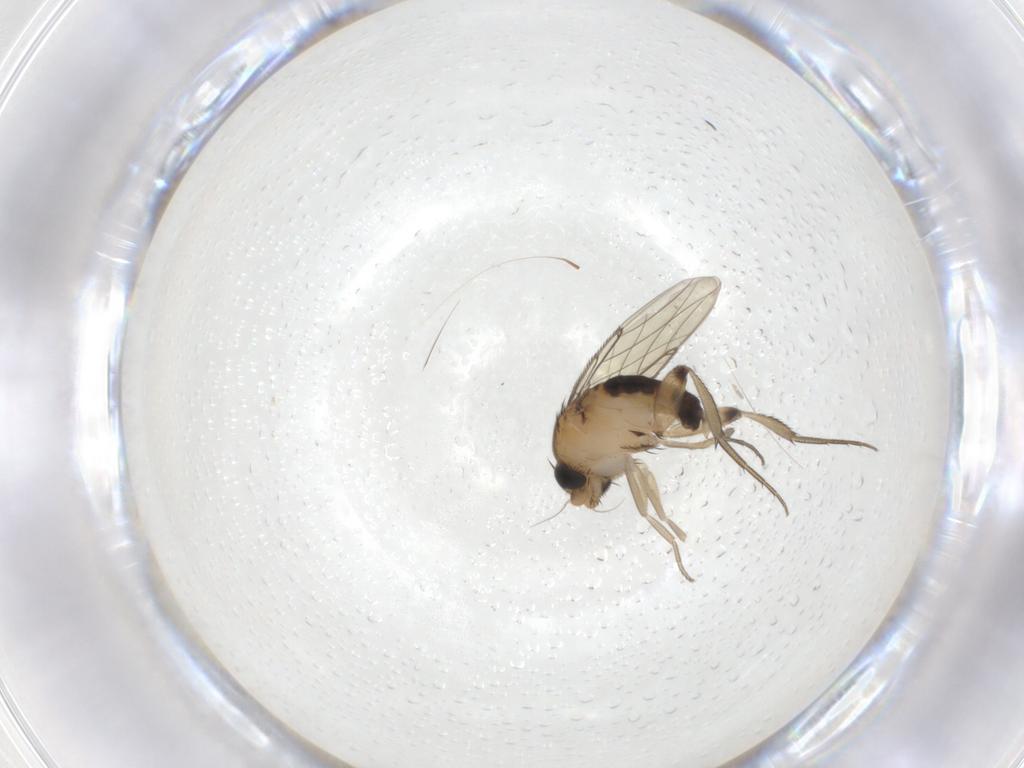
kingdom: Animalia
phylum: Arthropoda
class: Insecta
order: Diptera
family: Phoridae
